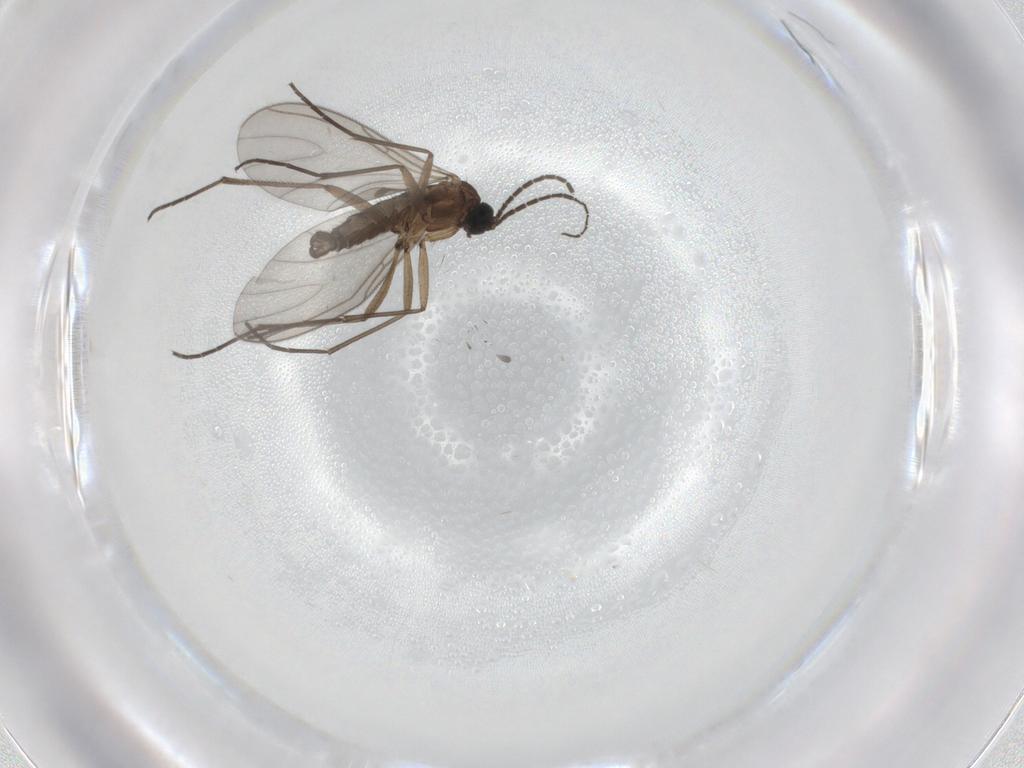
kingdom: Animalia
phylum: Arthropoda
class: Insecta
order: Diptera
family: Sciaridae
